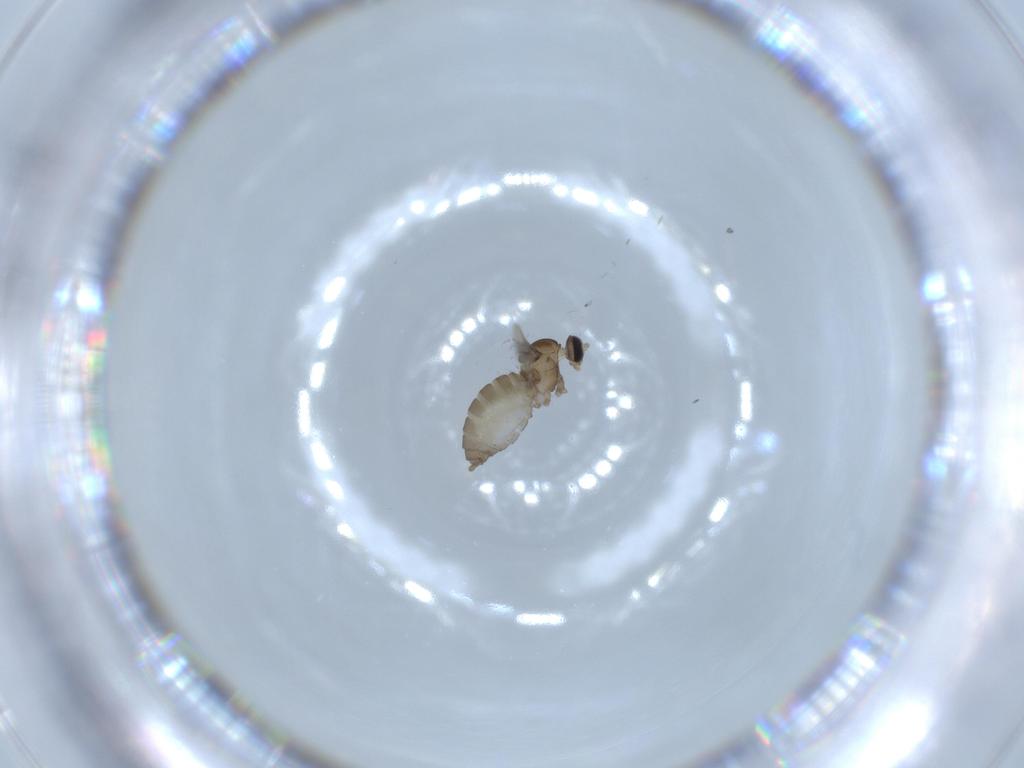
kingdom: Animalia
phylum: Arthropoda
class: Insecta
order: Diptera
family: Cecidomyiidae
